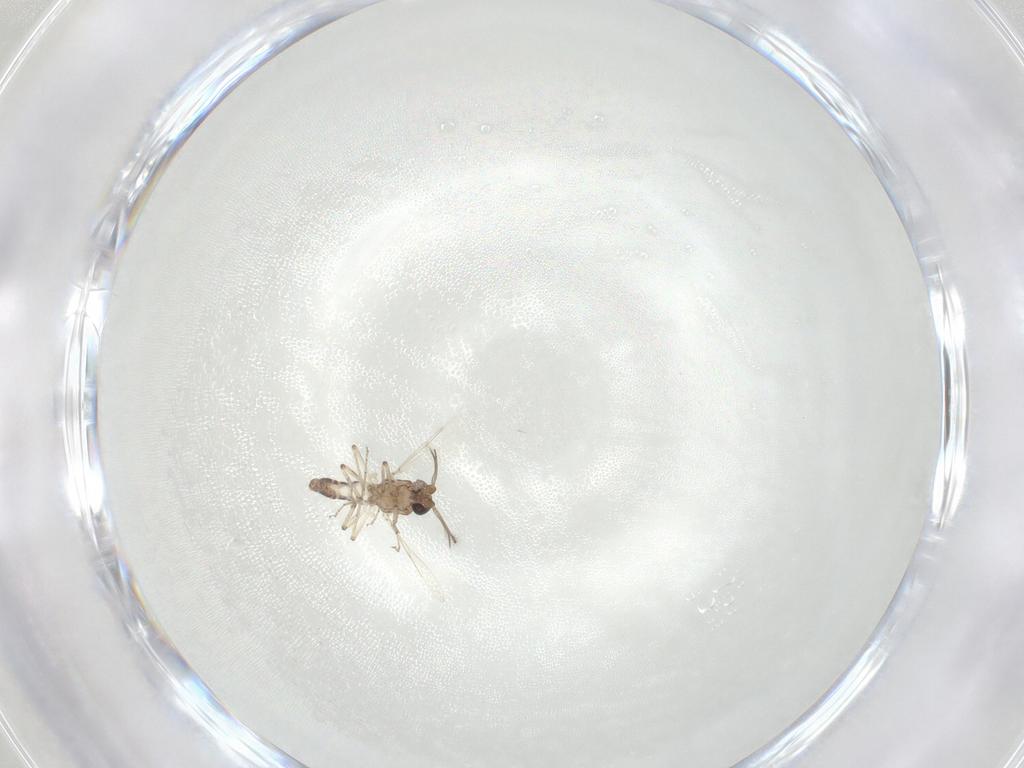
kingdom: Animalia
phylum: Arthropoda
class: Insecta
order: Diptera
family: Ceratopogonidae
